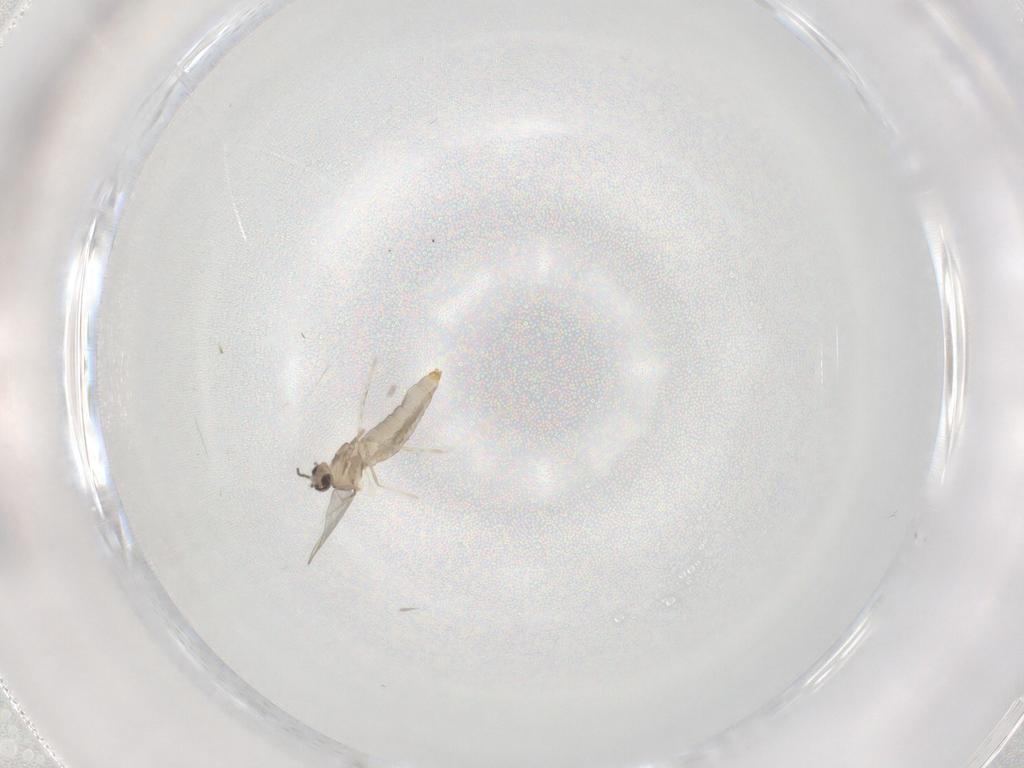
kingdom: Animalia
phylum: Arthropoda
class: Insecta
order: Diptera
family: Cecidomyiidae
